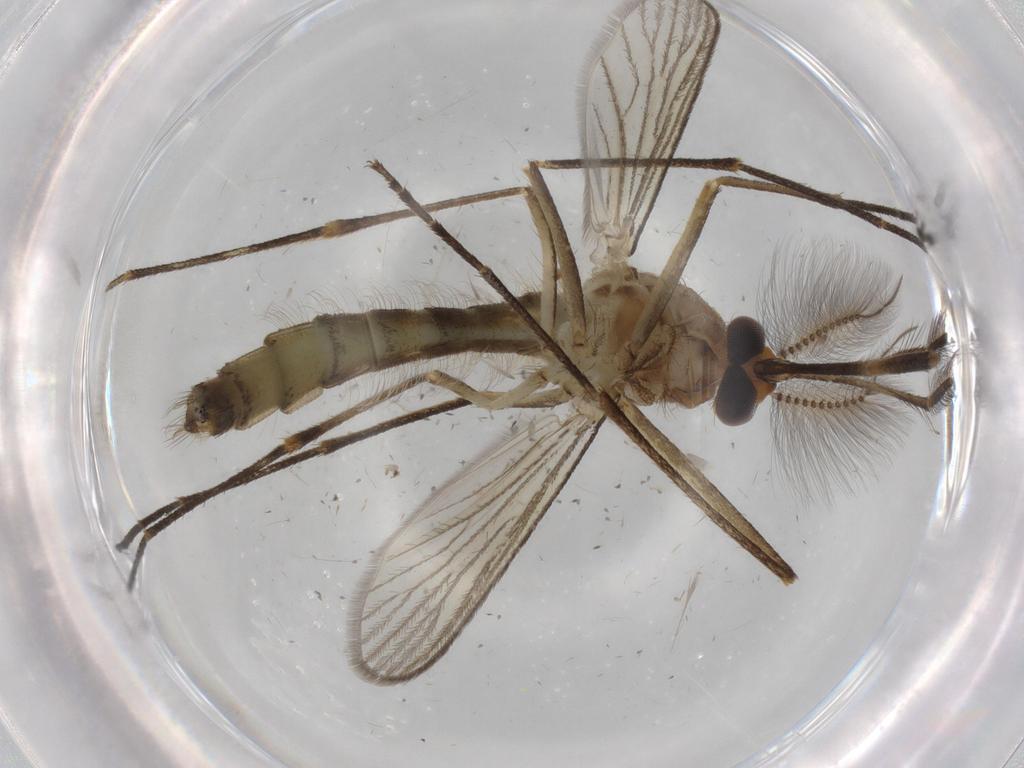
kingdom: Animalia
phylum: Arthropoda
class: Insecta
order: Diptera
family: Culicidae
